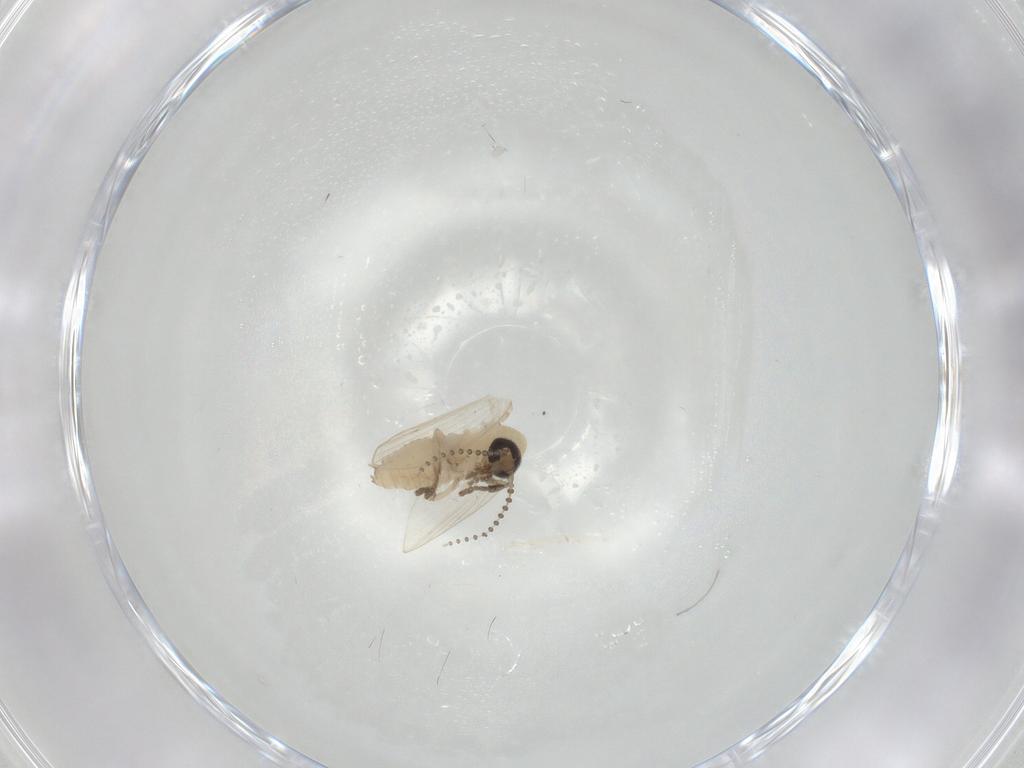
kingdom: Animalia
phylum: Arthropoda
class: Insecta
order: Diptera
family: Psychodidae
